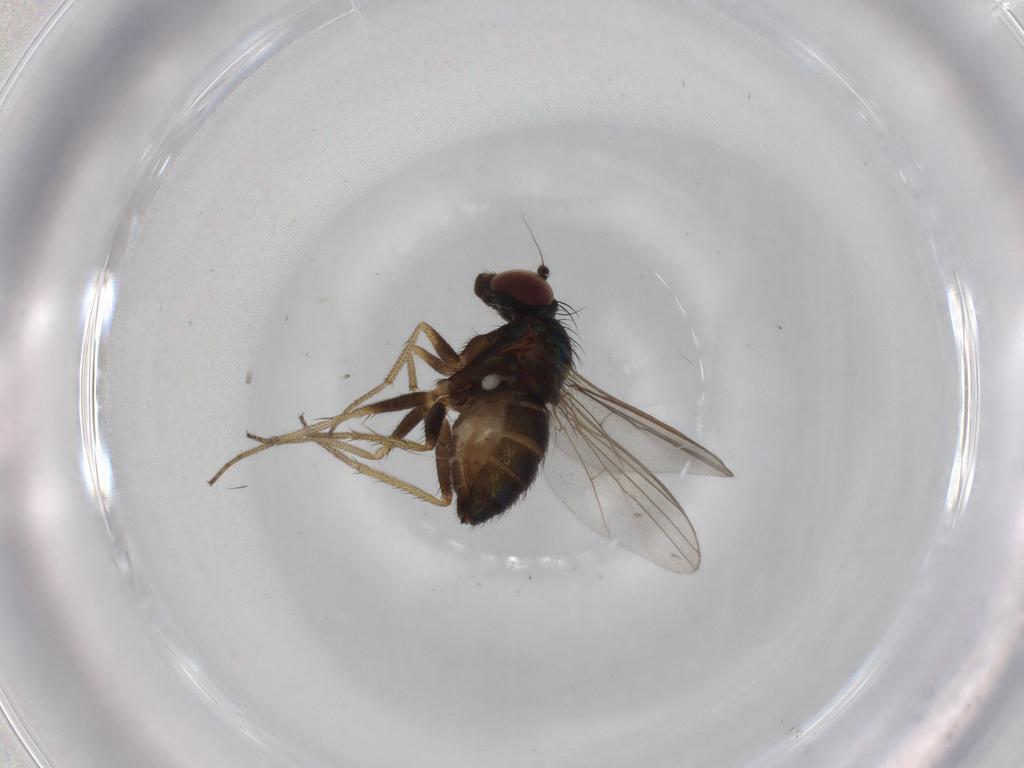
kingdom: Animalia
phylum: Arthropoda
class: Insecta
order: Diptera
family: Dolichopodidae
